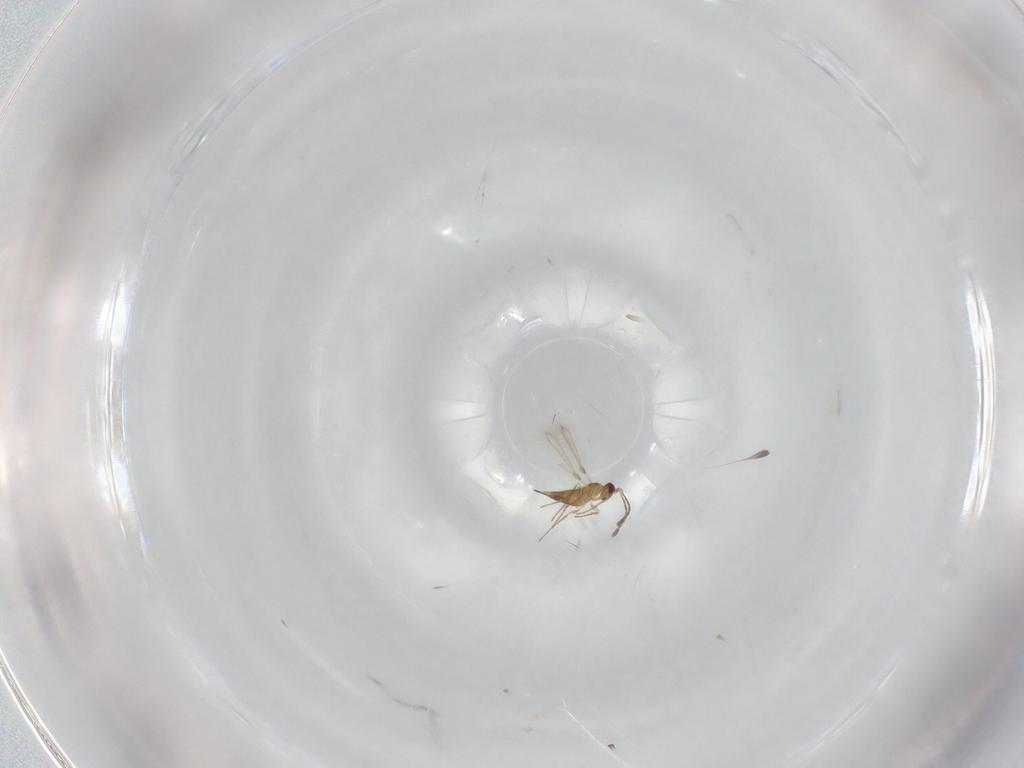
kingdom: Animalia
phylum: Arthropoda
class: Insecta
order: Hymenoptera
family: Mymaridae
